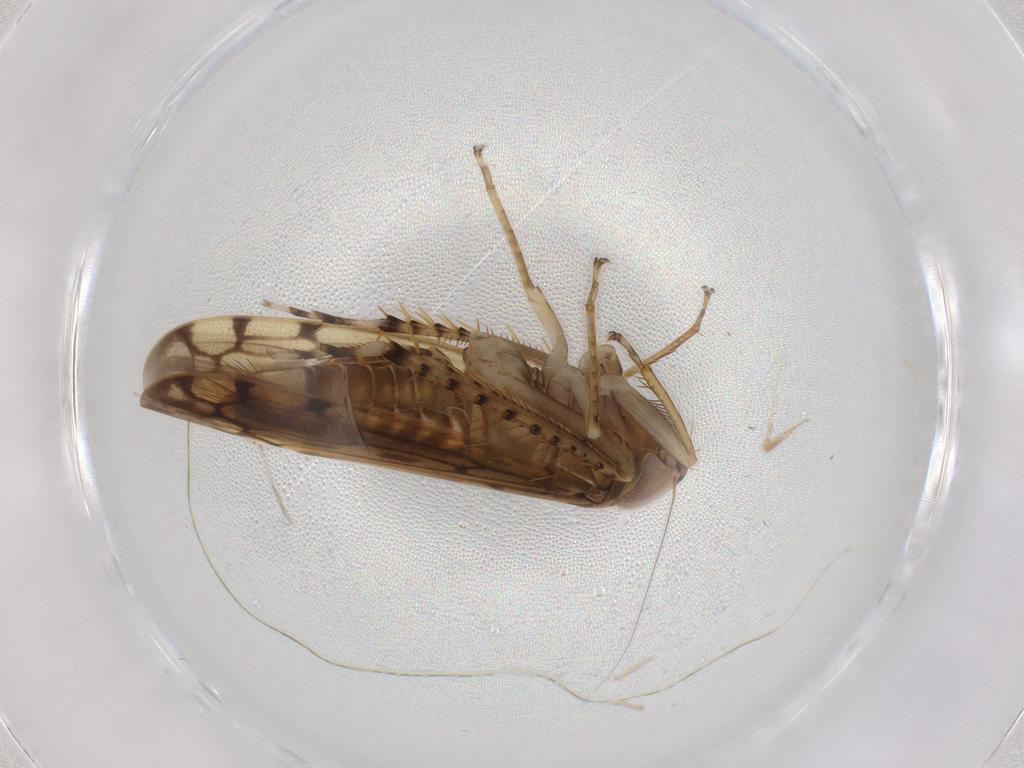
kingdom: Animalia
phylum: Arthropoda
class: Insecta
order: Hemiptera
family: Cicadellidae
